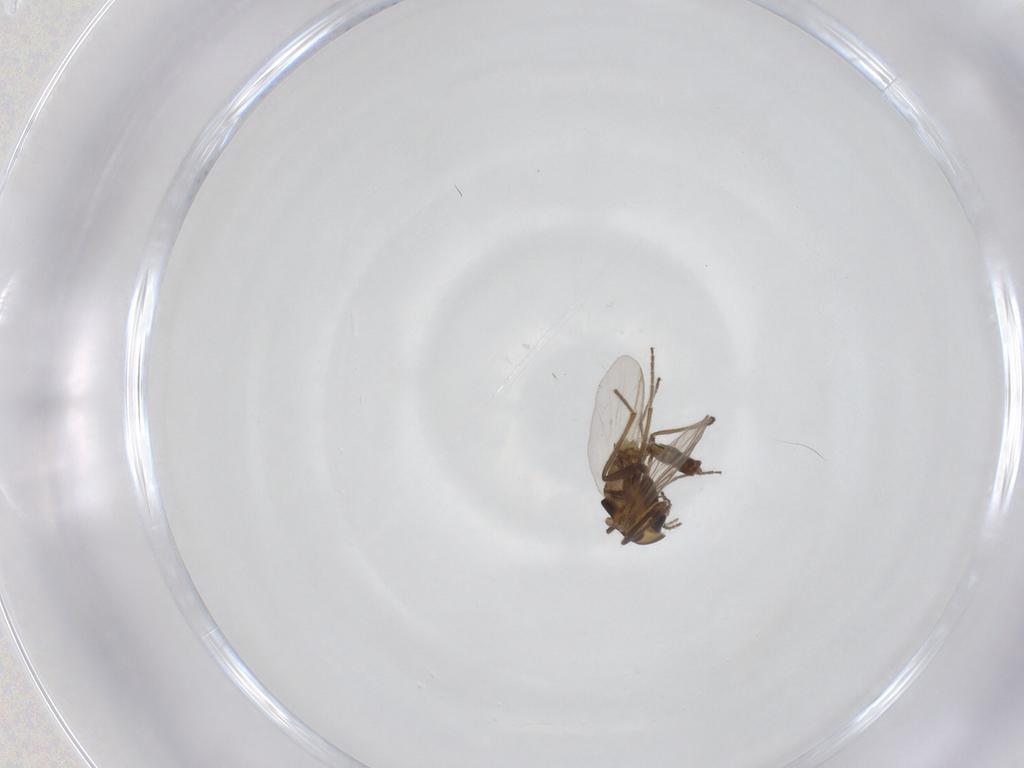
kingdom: Animalia
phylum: Arthropoda
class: Insecta
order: Diptera
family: Chironomidae
